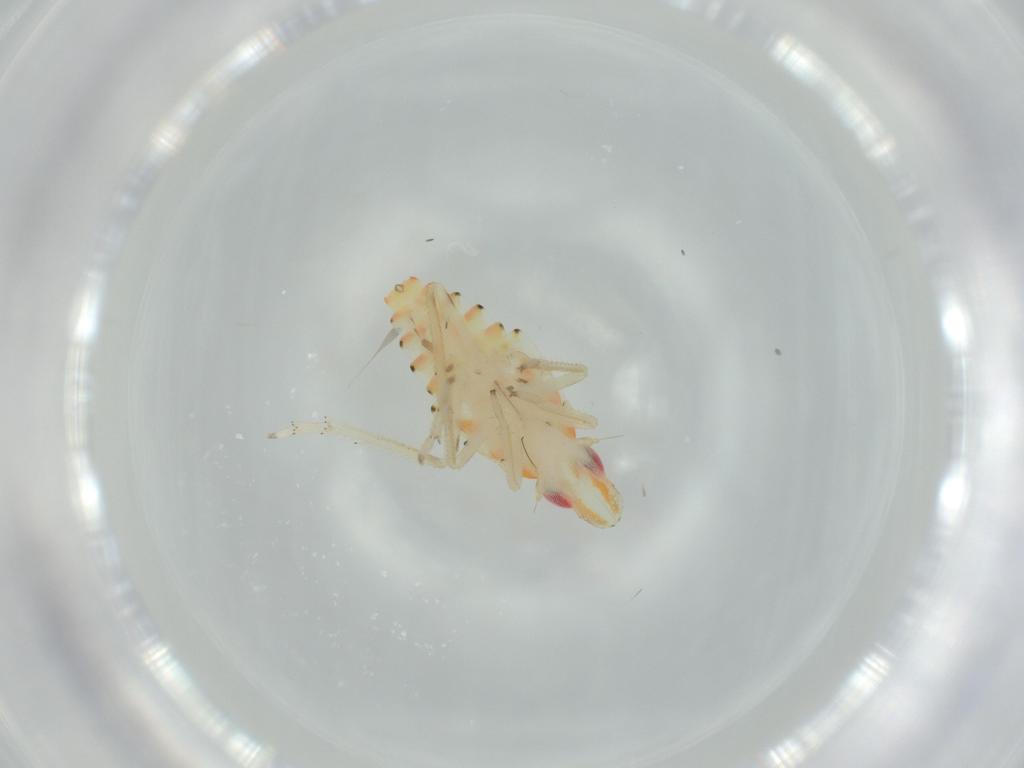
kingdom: Animalia
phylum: Arthropoda
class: Insecta
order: Hemiptera
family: Tropiduchidae
